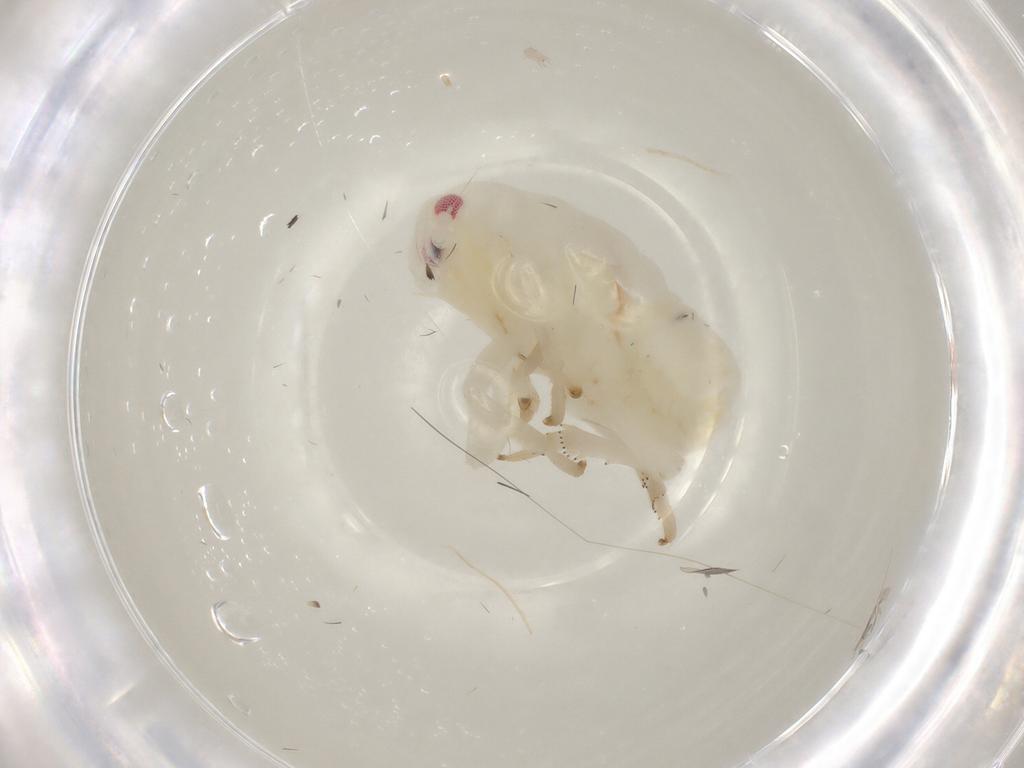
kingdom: Animalia
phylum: Arthropoda
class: Insecta
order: Hemiptera
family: Fulgoroidea_incertae_sedis
